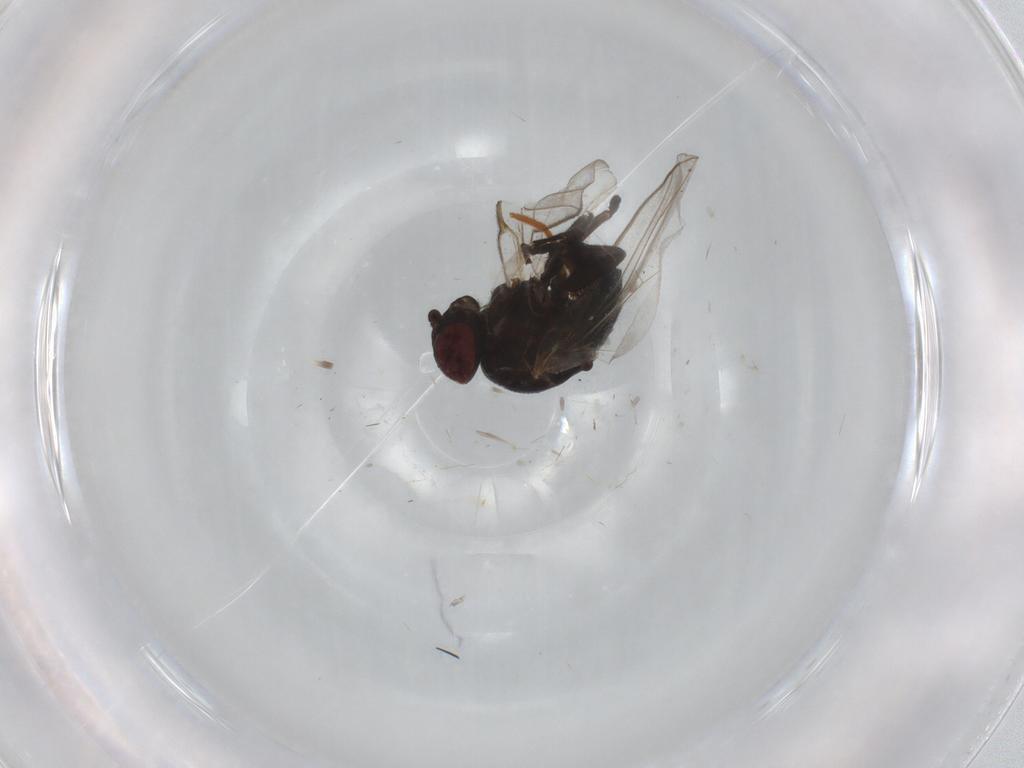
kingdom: Animalia
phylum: Arthropoda
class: Insecta
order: Diptera
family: Agromyzidae
